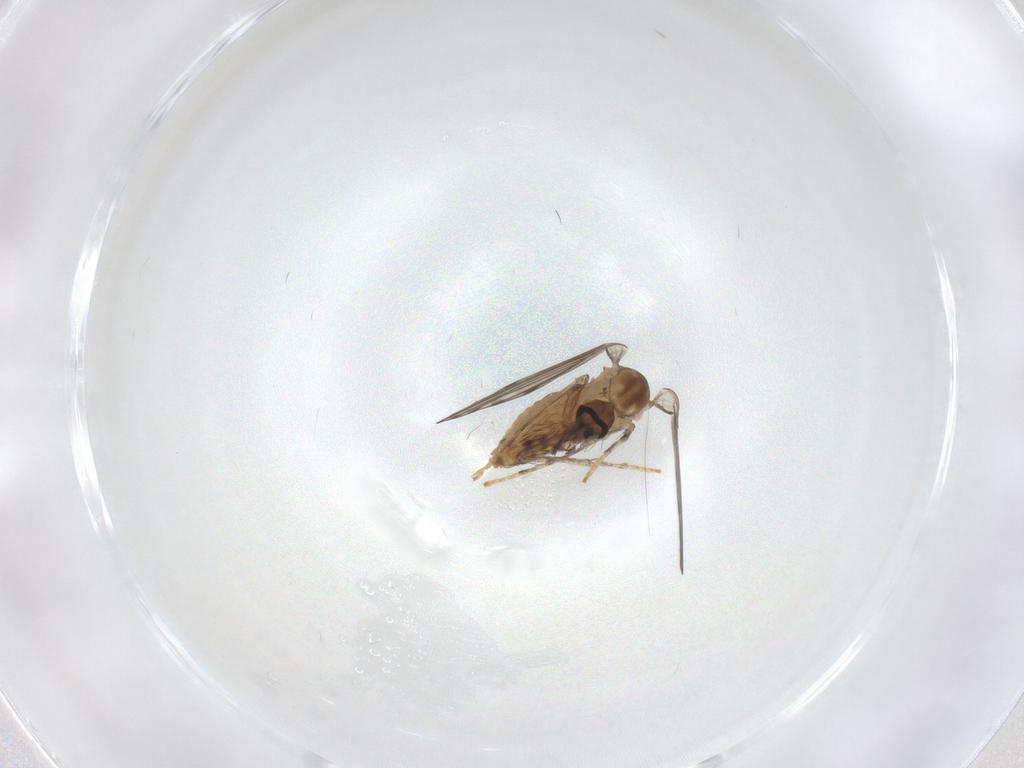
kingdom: Animalia
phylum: Arthropoda
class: Insecta
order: Diptera
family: Psychodidae
